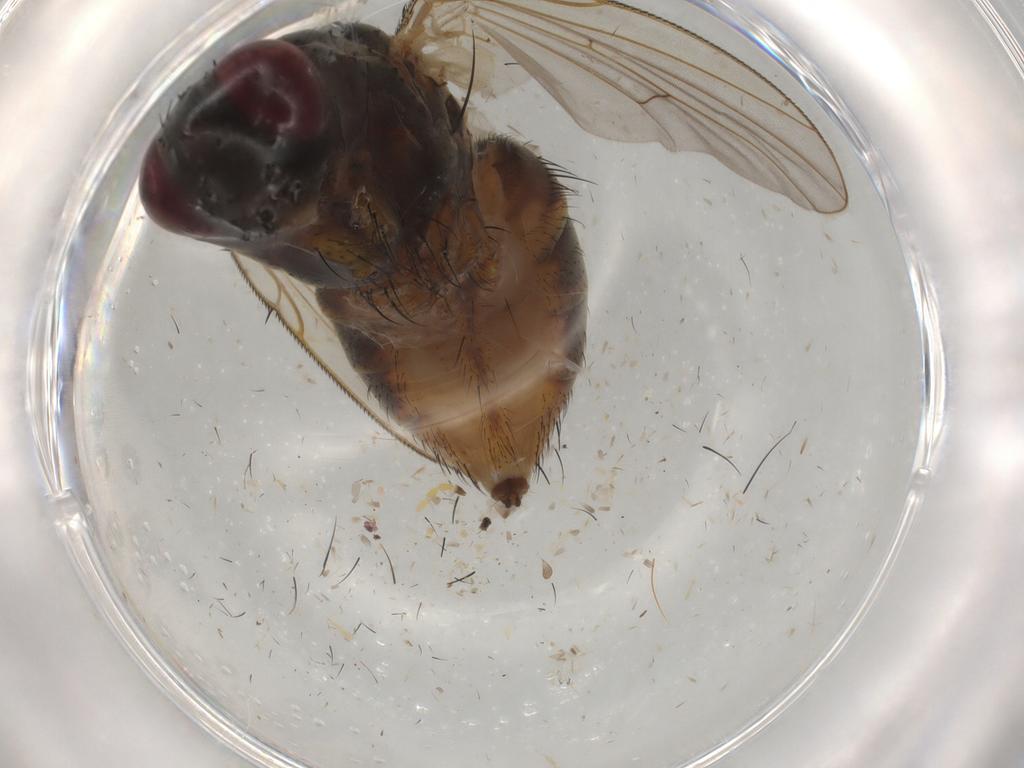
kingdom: Animalia
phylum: Arthropoda
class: Insecta
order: Diptera
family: Muscidae
